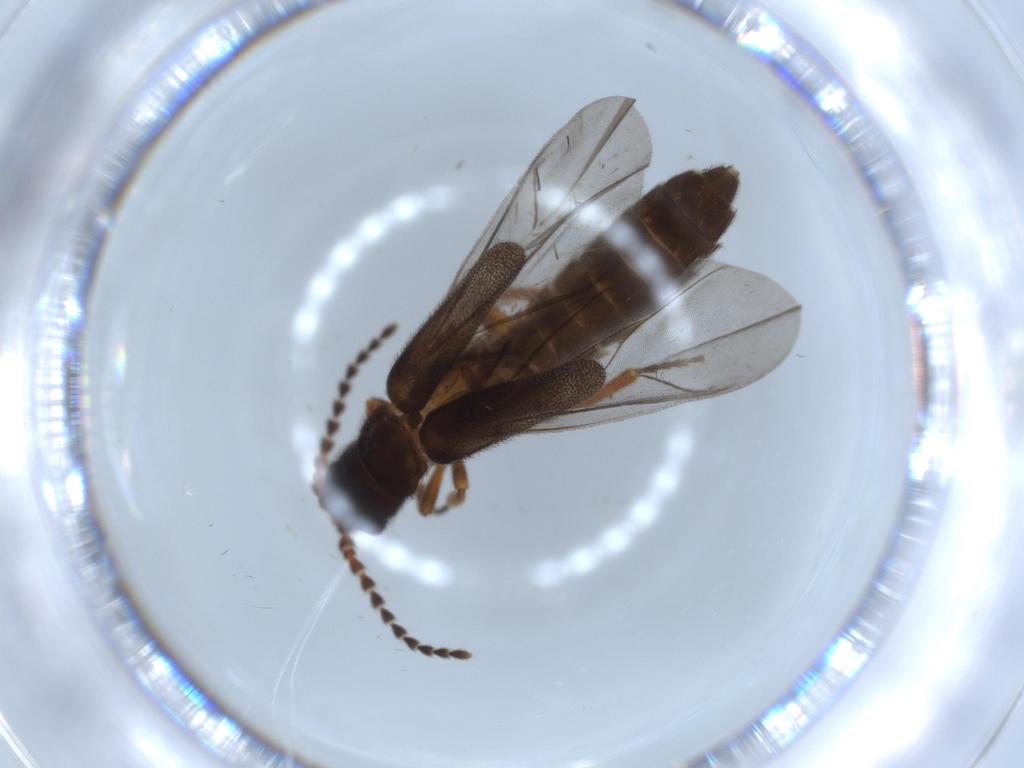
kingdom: Animalia
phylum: Arthropoda
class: Insecta
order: Coleoptera
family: Omethidae
